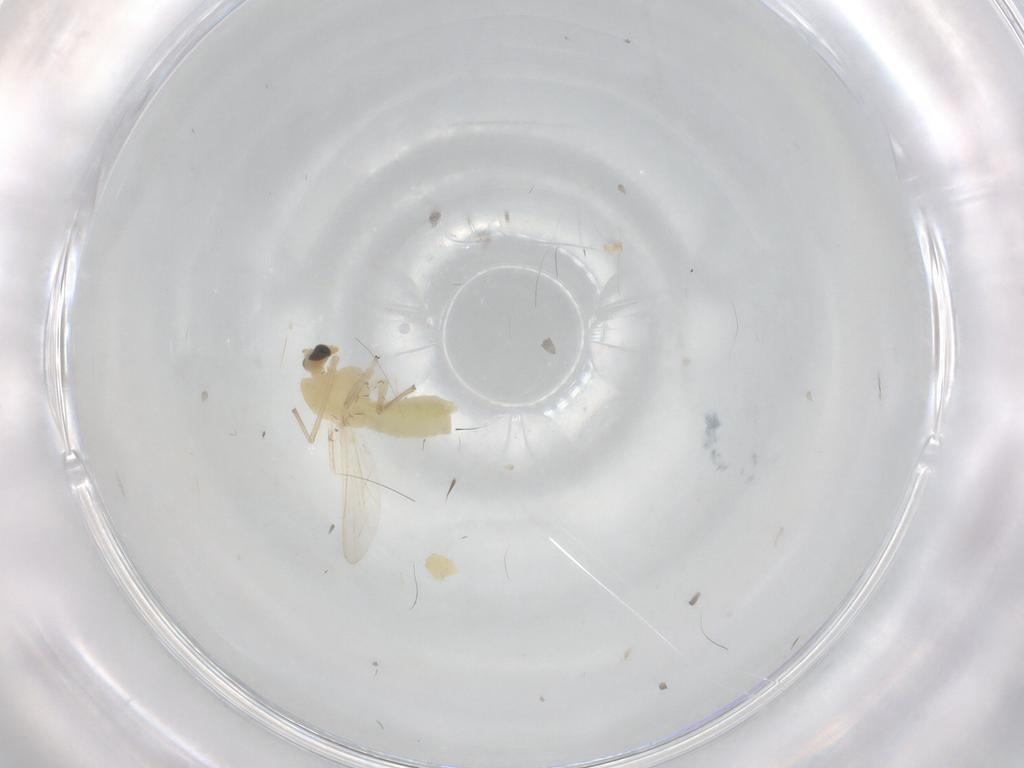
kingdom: Animalia
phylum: Arthropoda
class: Insecta
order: Diptera
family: Chironomidae
